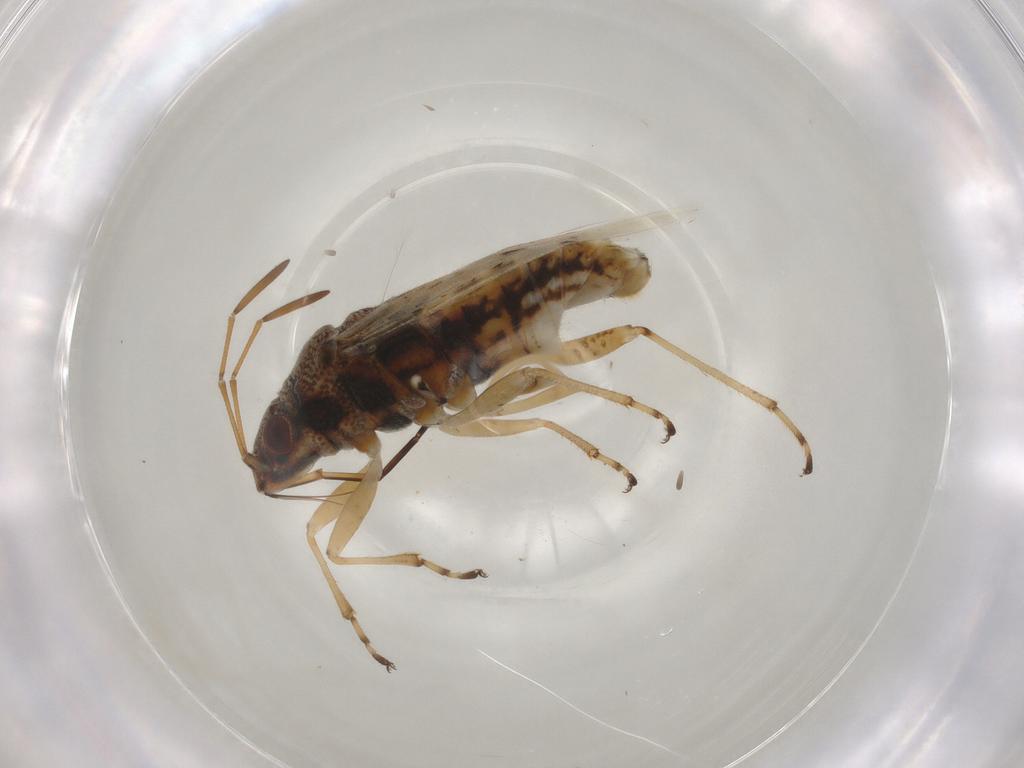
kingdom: Animalia
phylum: Arthropoda
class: Insecta
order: Hemiptera
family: Lygaeidae
